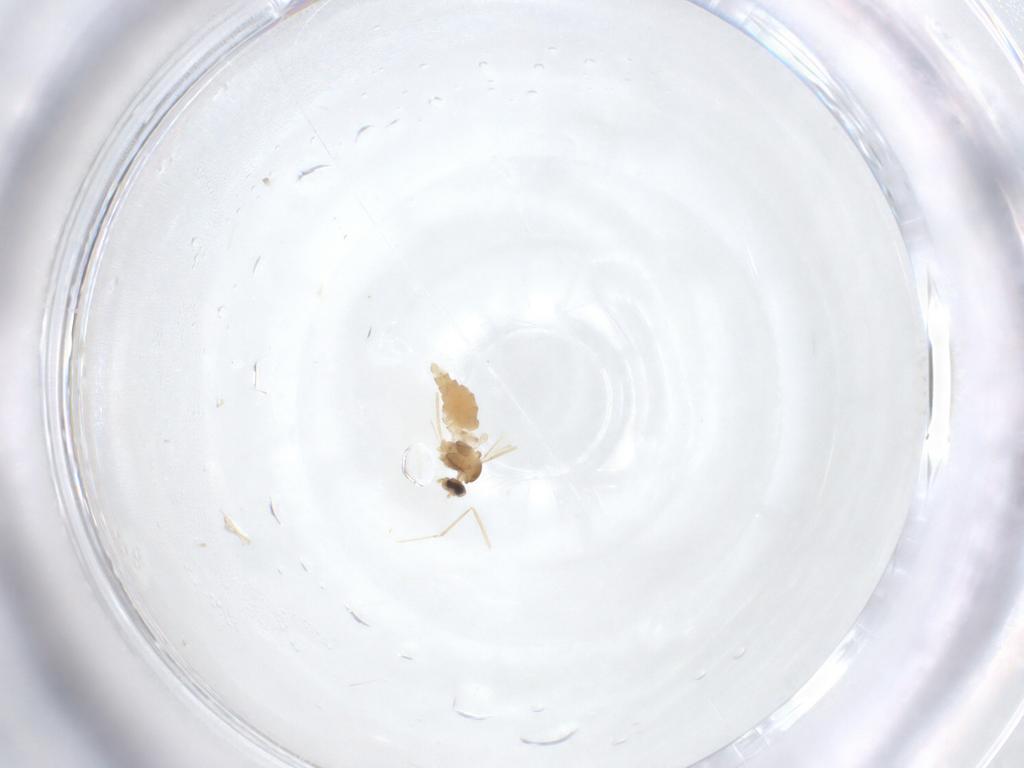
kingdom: Animalia
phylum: Arthropoda
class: Insecta
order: Diptera
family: Cecidomyiidae
